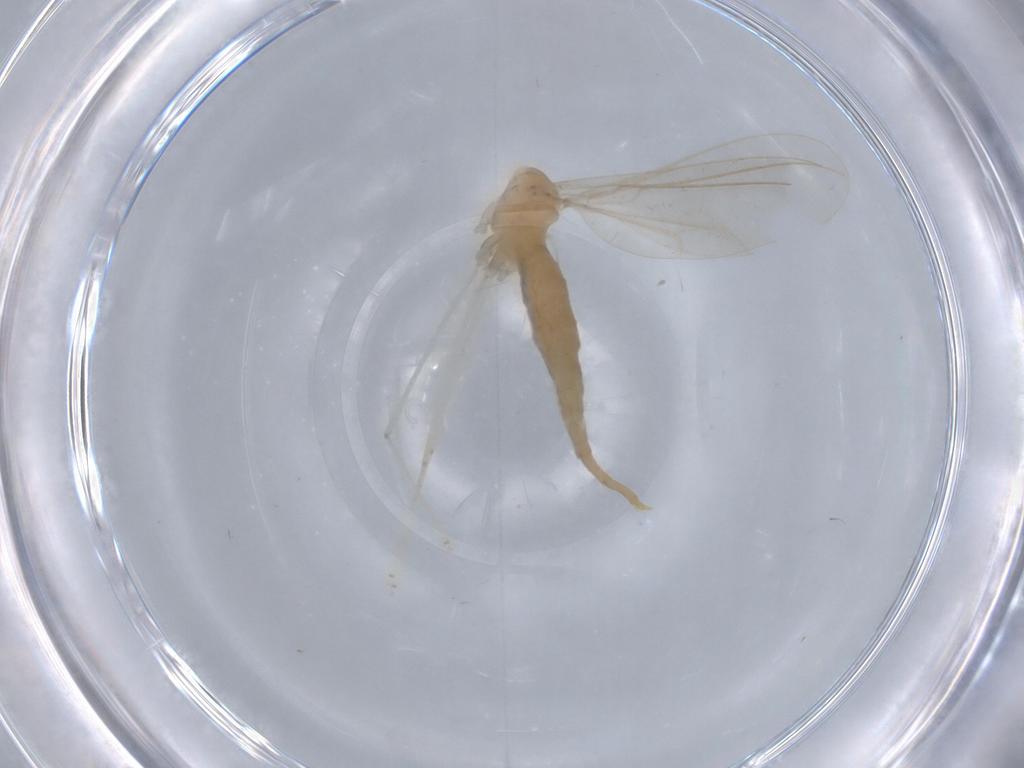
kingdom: Animalia
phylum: Arthropoda
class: Insecta
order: Diptera
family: Cecidomyiidae
